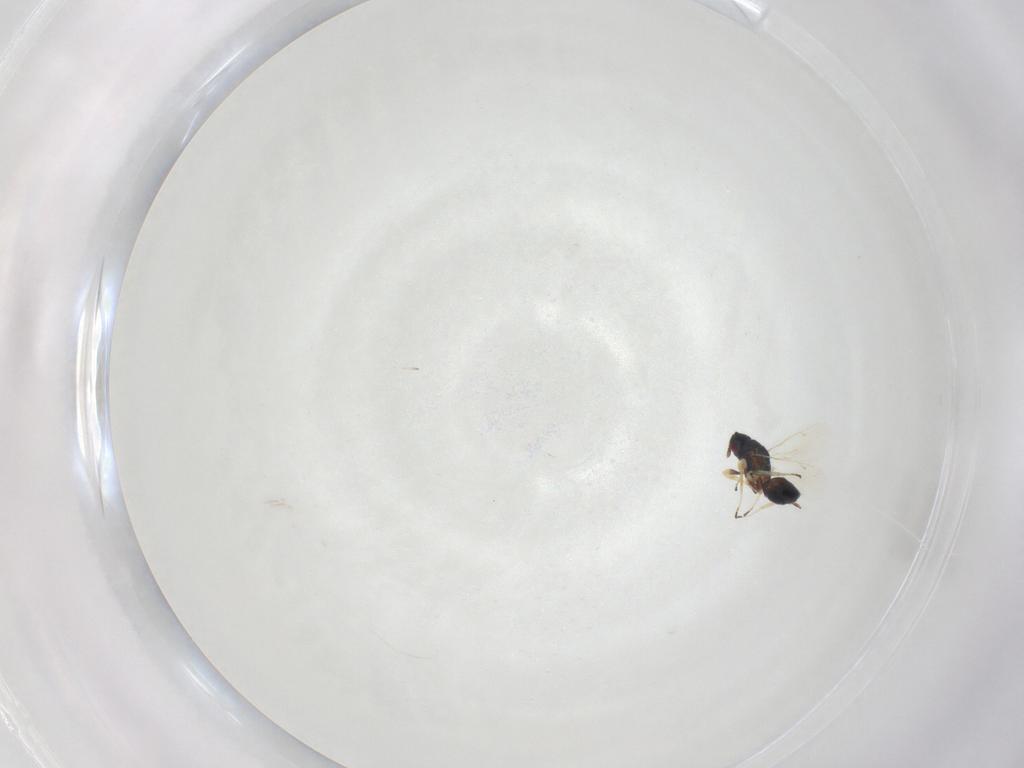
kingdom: Animalia
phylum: Arthropoda
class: Insecta
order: Hymenoptera
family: Tetracampidae
